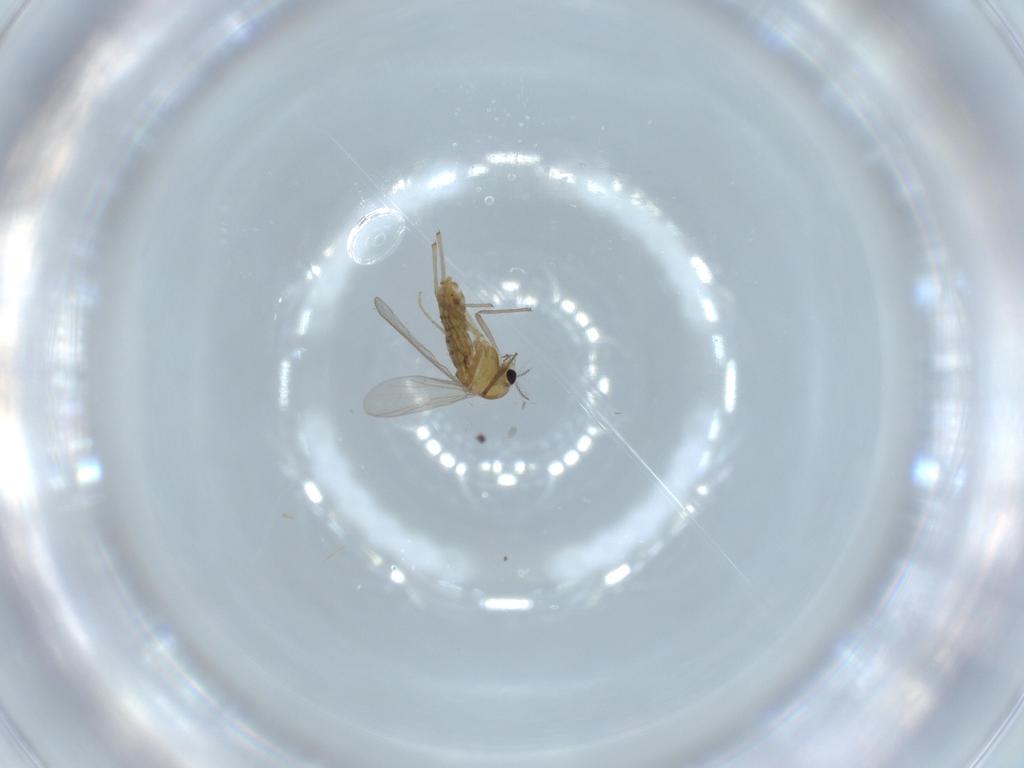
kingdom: Animalia
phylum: Arthropoda
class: Insecta
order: Diptera
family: Chironomidae
